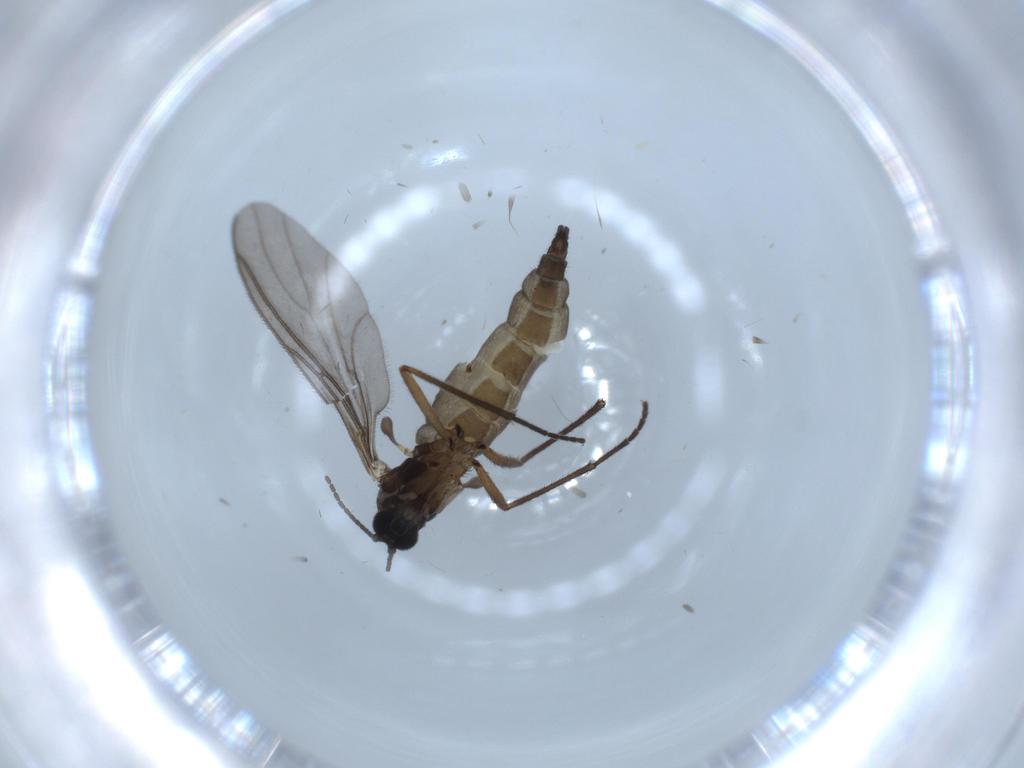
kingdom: Animalia
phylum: Arthropoda
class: Insecta
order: Diptera
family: Sciaridae
